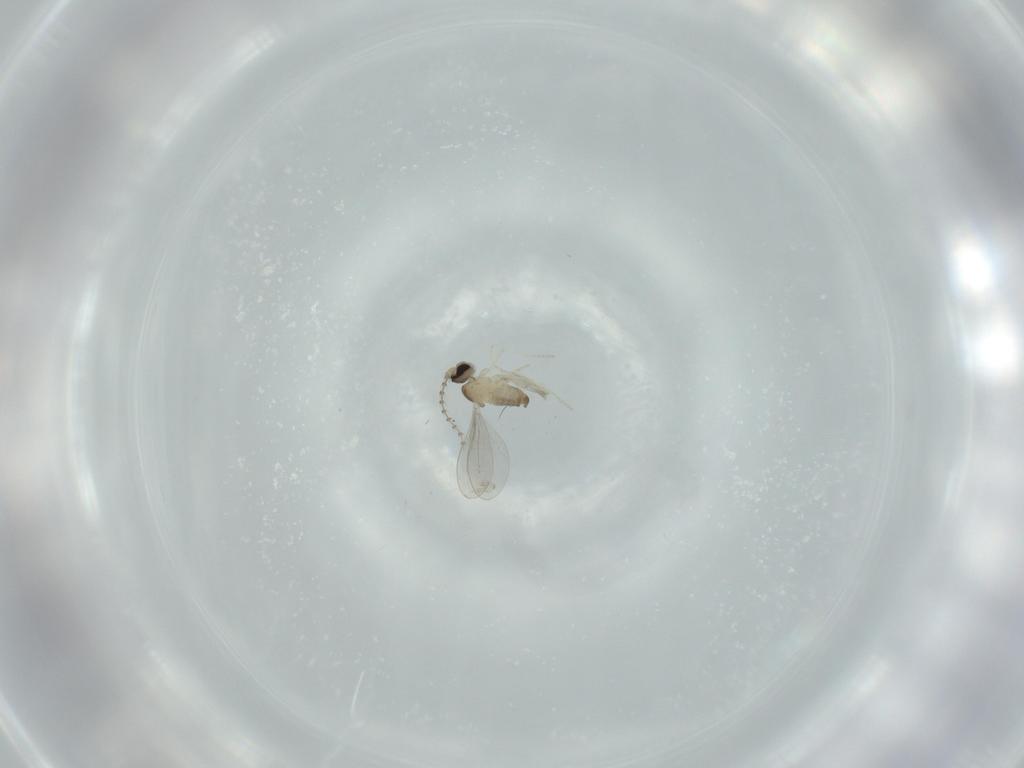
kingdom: Animalia
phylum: Arthropoda
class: Insecta
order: Diptera
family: Cecidomyiidae
